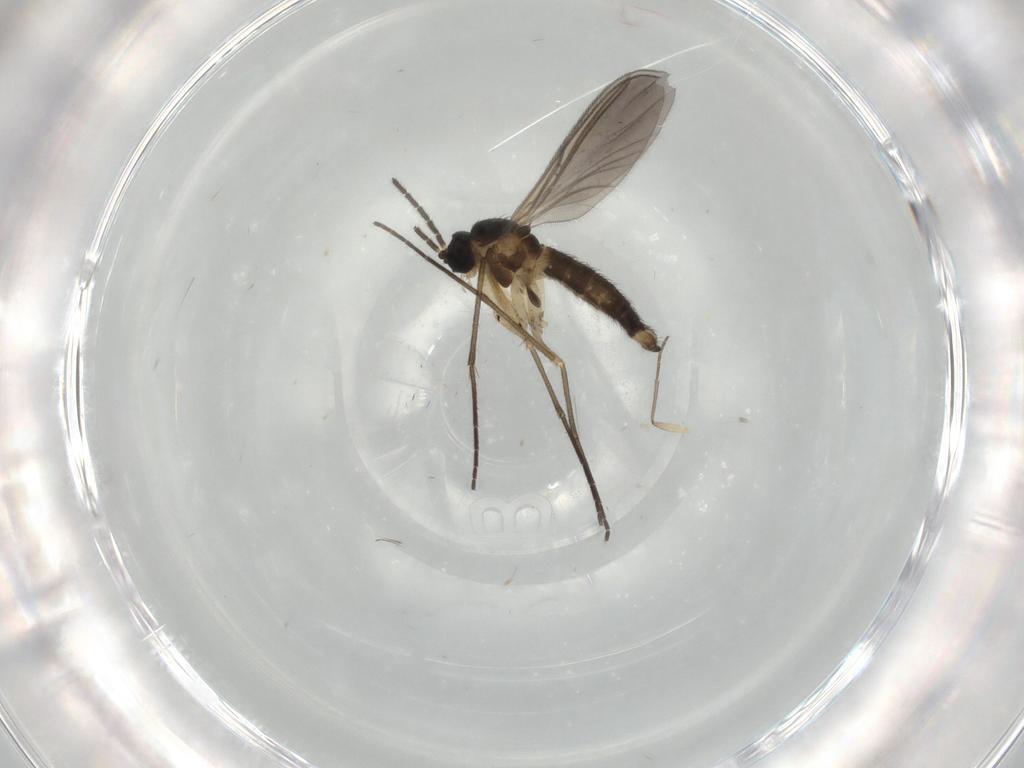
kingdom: Animalia
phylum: Arthropoda
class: Insecta
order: Diptera
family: Sciaridae
